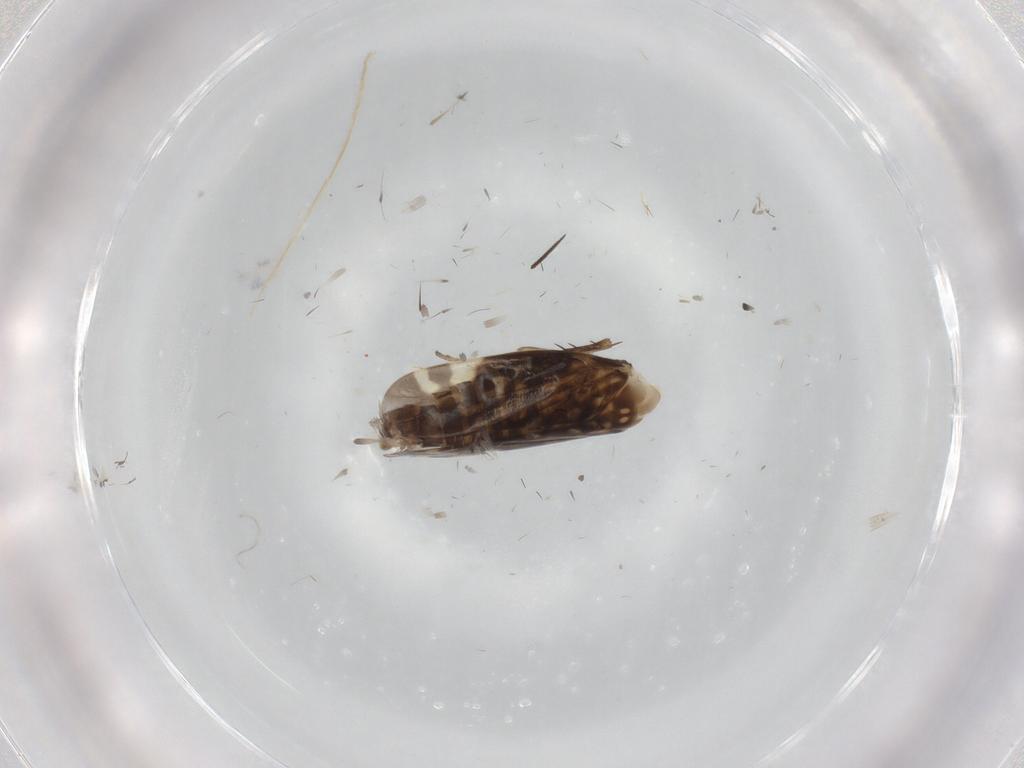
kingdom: Animalia
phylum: Arthropoda
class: Insecta
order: Hemiptera
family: Cicadellidae
